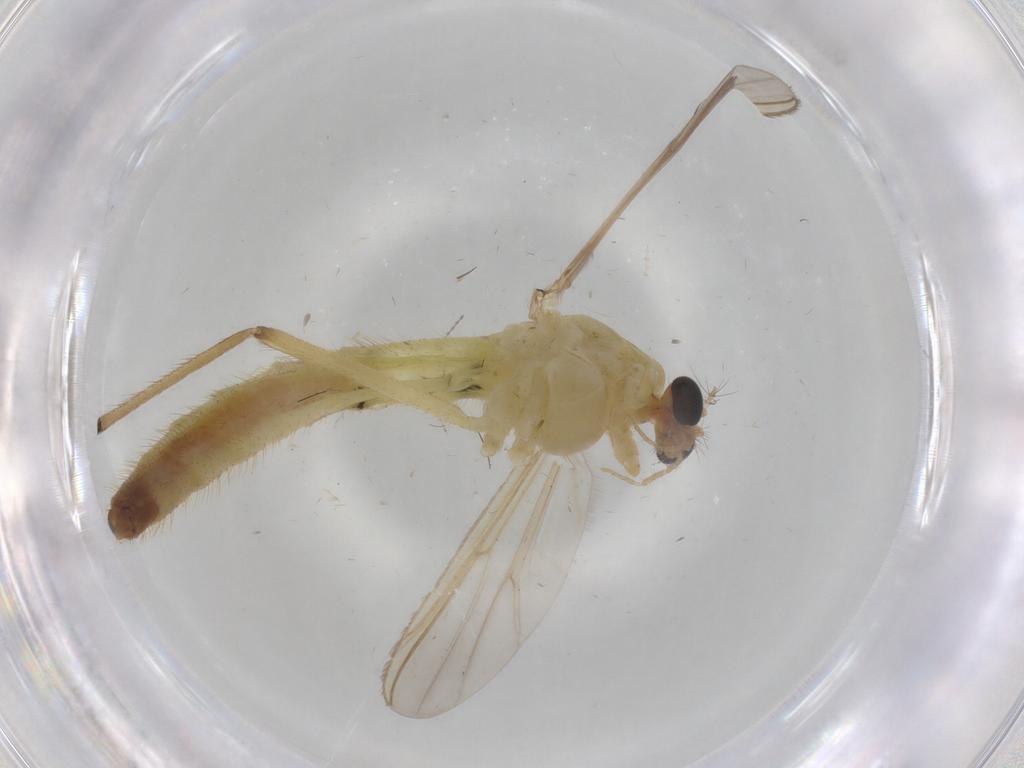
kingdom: Animalia
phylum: Arthropoda
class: Insecta
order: Diptera
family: Chironomidae
